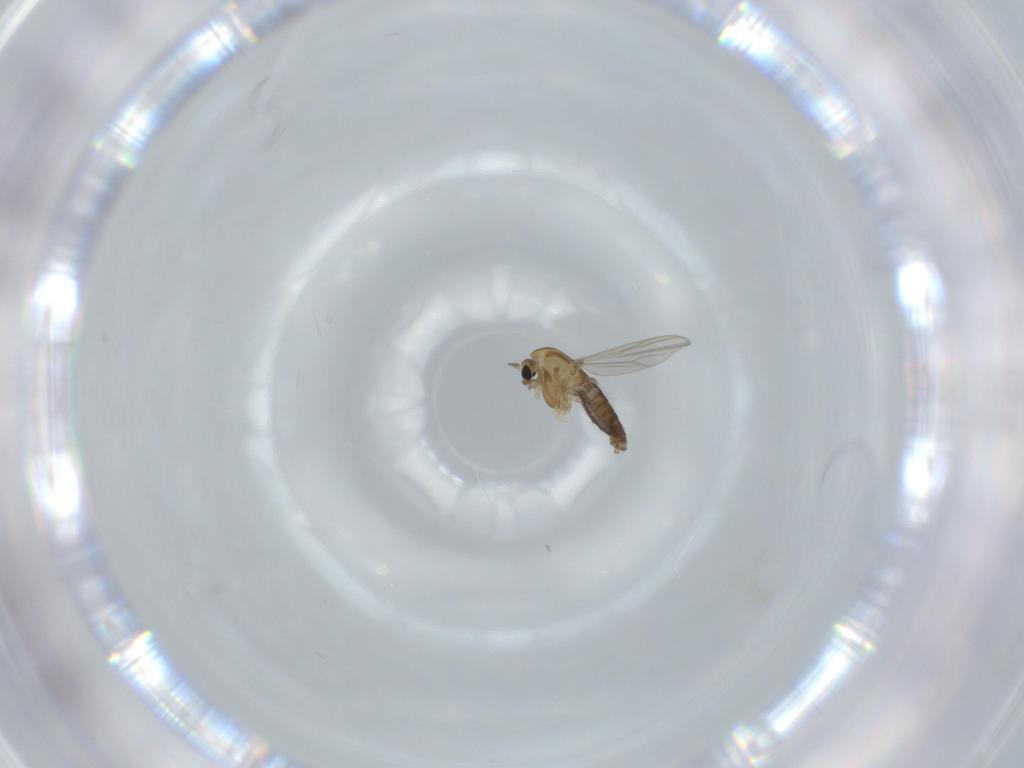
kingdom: Animalia
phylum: Arthropoda
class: Insecta
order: Diptera
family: Chironomidae
